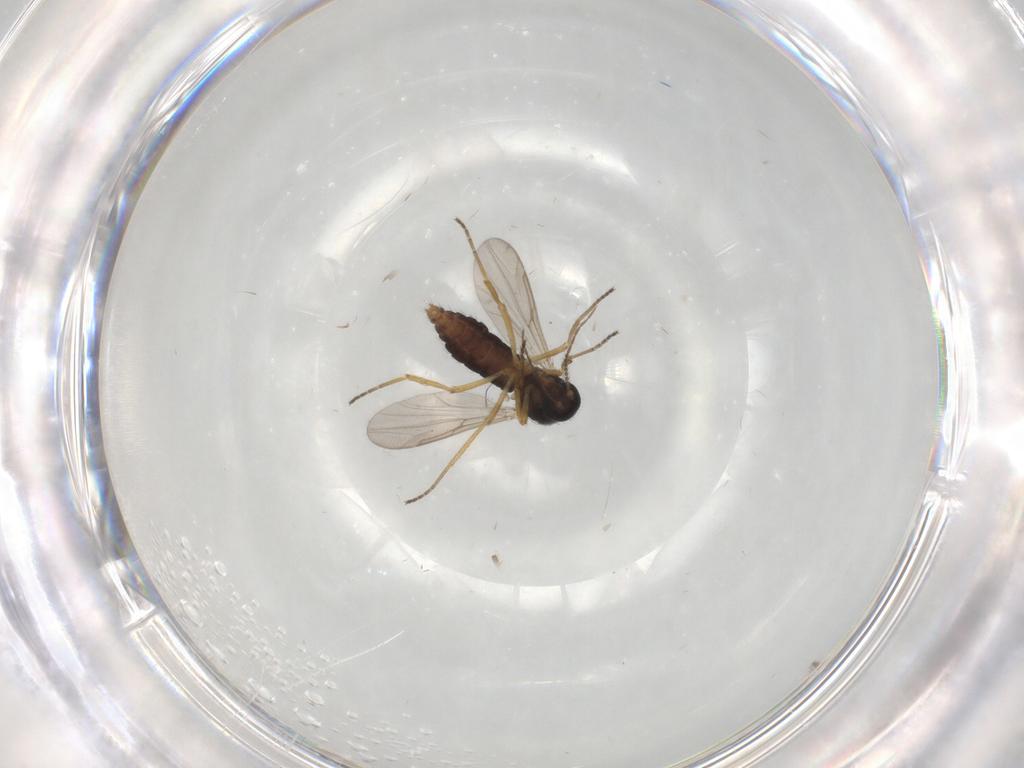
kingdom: Animalia
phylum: Arthropoda
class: Insecta
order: Diptera
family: Ceratopogonidae
